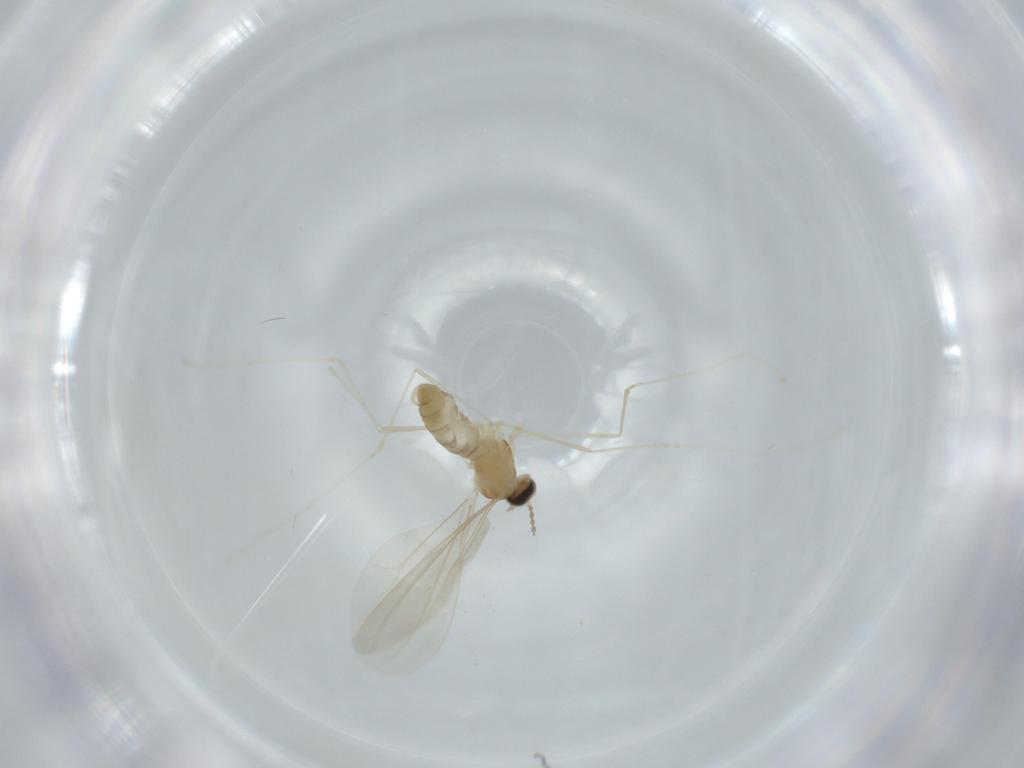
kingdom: Animalia
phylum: Arthropoda
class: Insecta
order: Diptera
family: Cecidomyiidae
